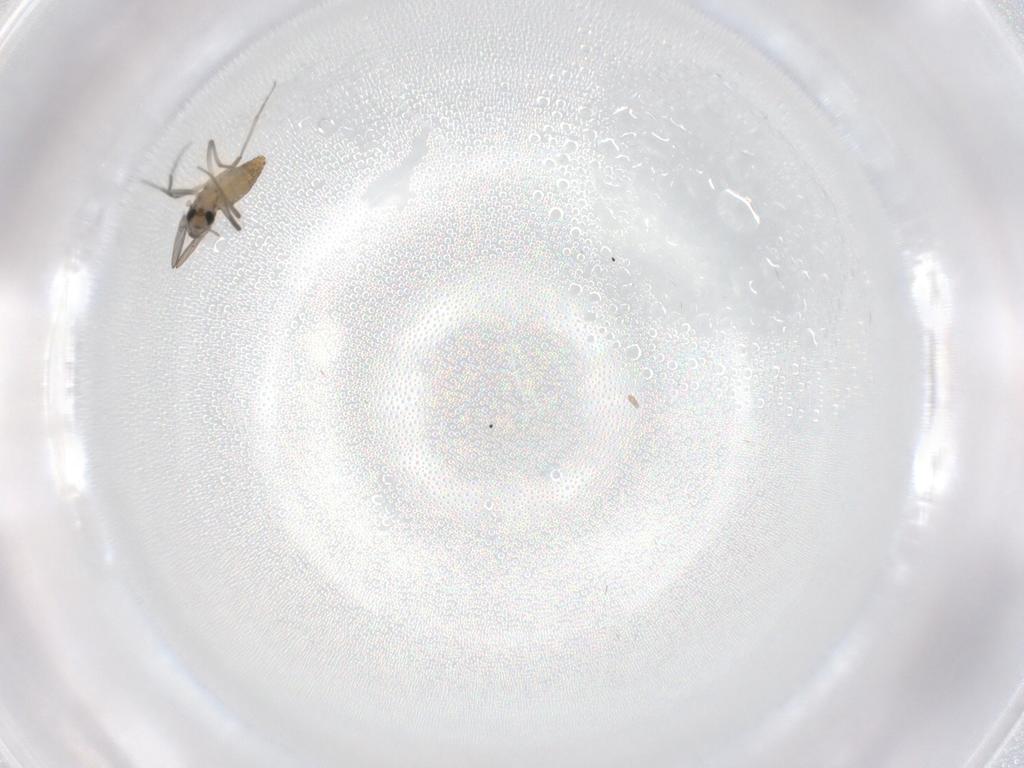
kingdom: Animalia
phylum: Arthropoda
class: Insecta
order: Diptera
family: Chironomidae
